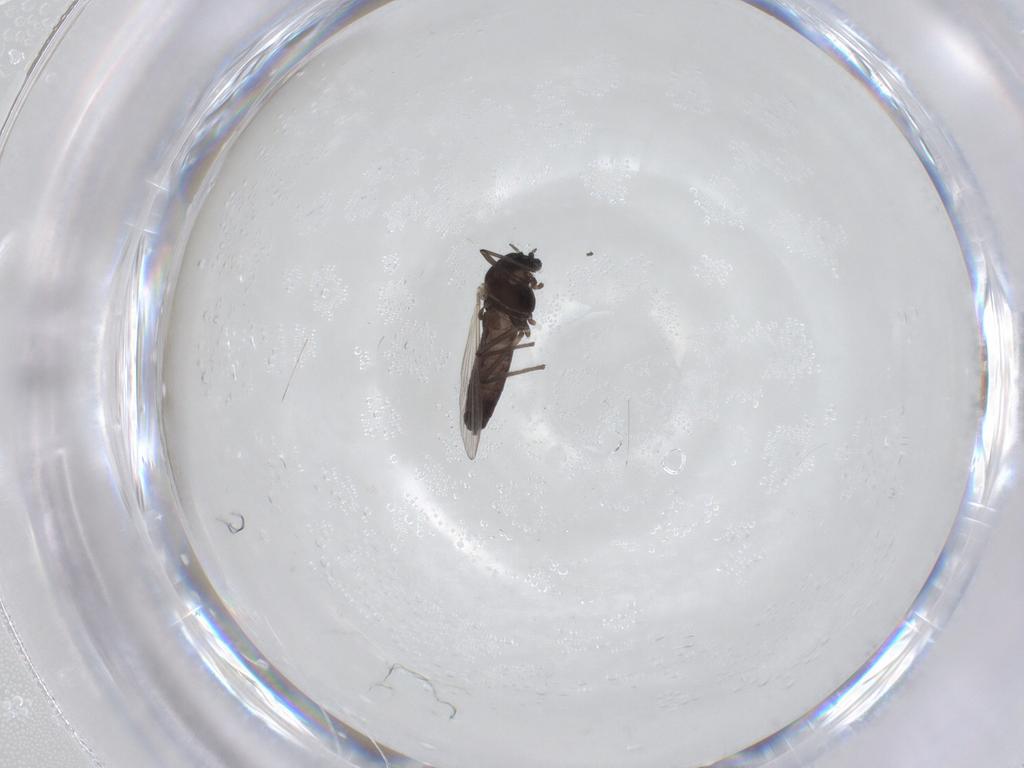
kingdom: Animalia
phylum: Arthropoda
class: Insecta
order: Diptera
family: Chironomidae
